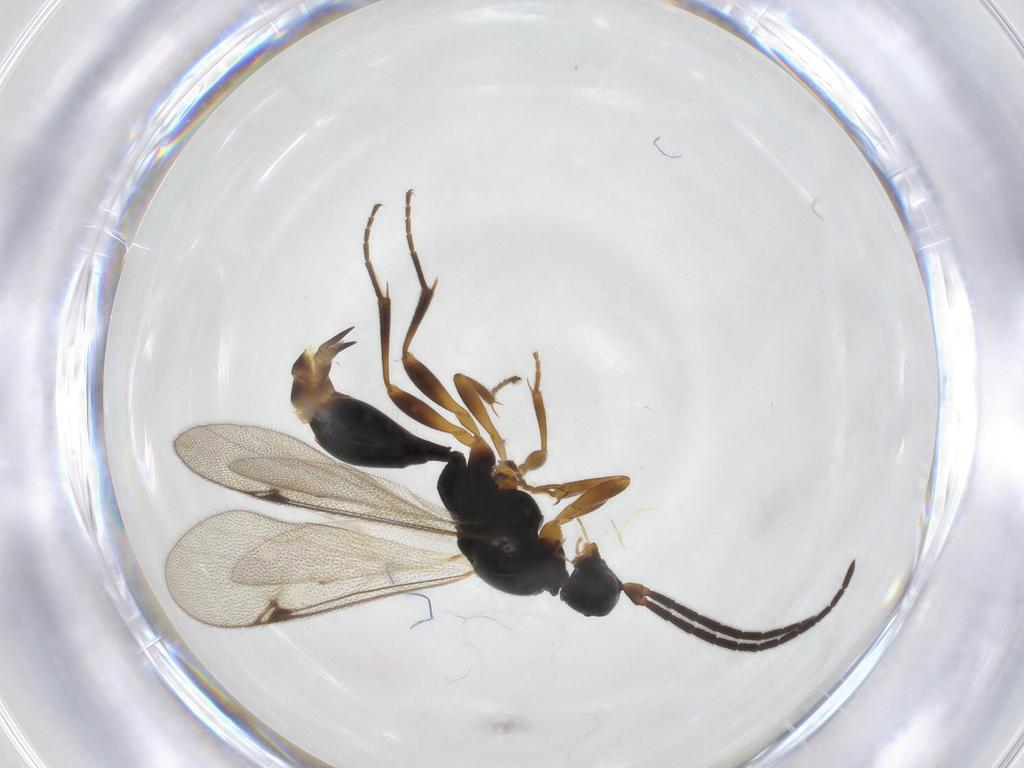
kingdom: Animalia
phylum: Arthropoda
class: Insecta
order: Hymenoptera
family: Proctotrupidae
